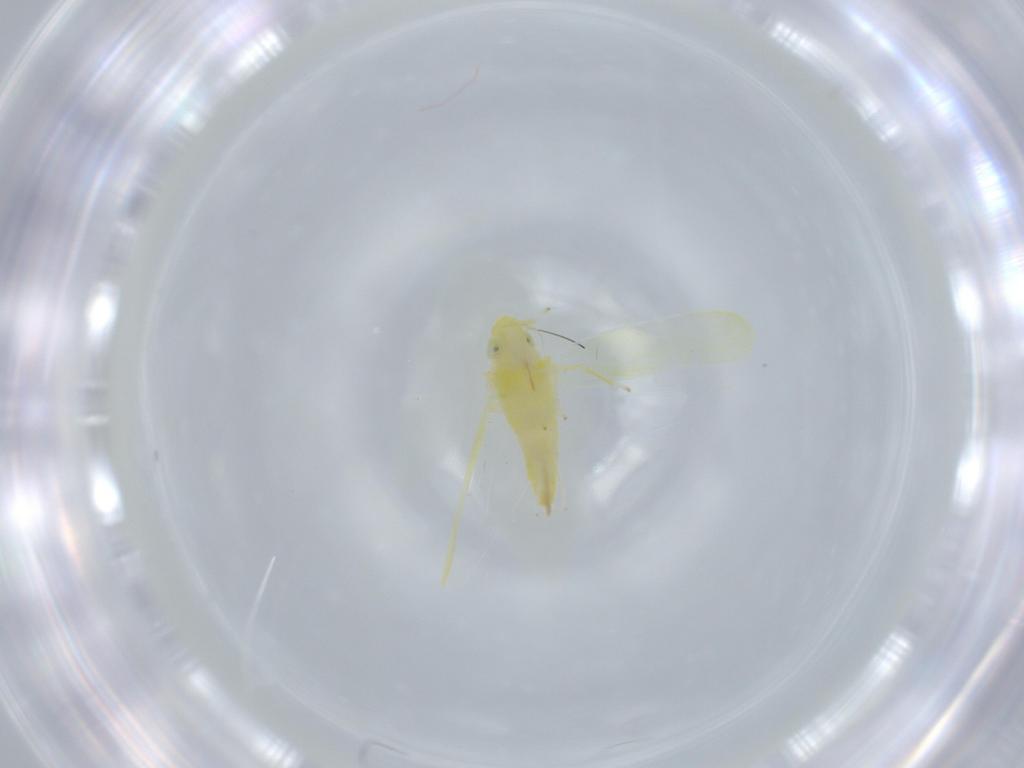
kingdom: Animalia
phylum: Arthropoda
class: Insecta
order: Hemiptera
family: Cicadellidae
